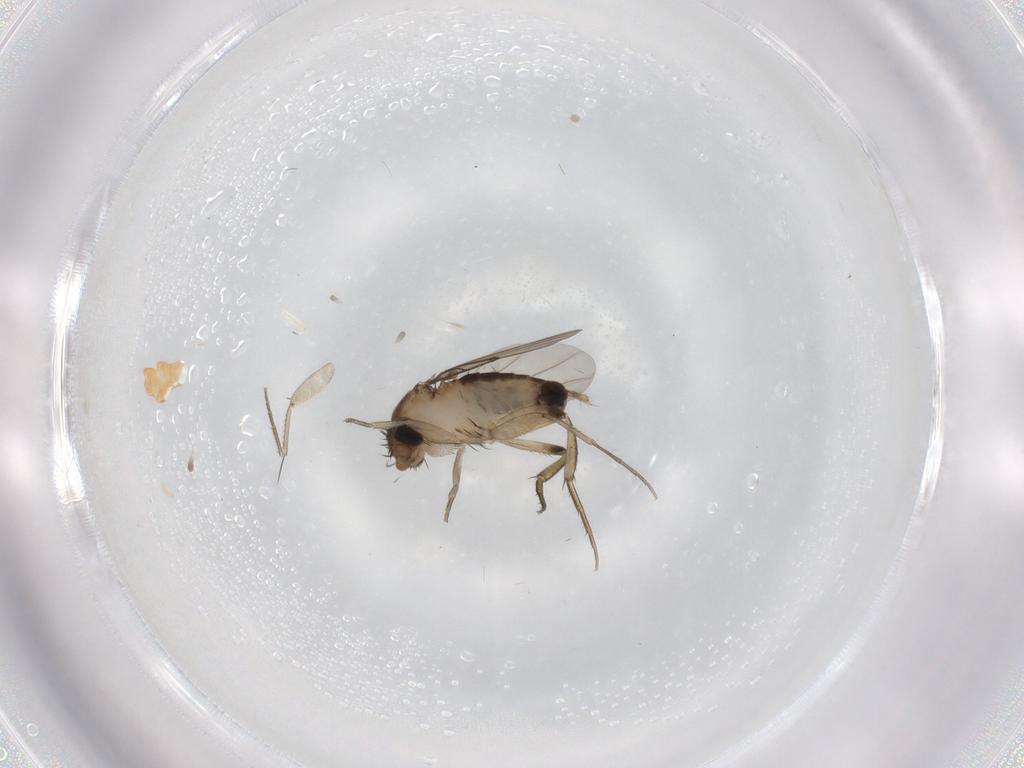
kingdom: Animalia
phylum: Arthropoda
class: Insecta
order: Diptera
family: Phoridae
